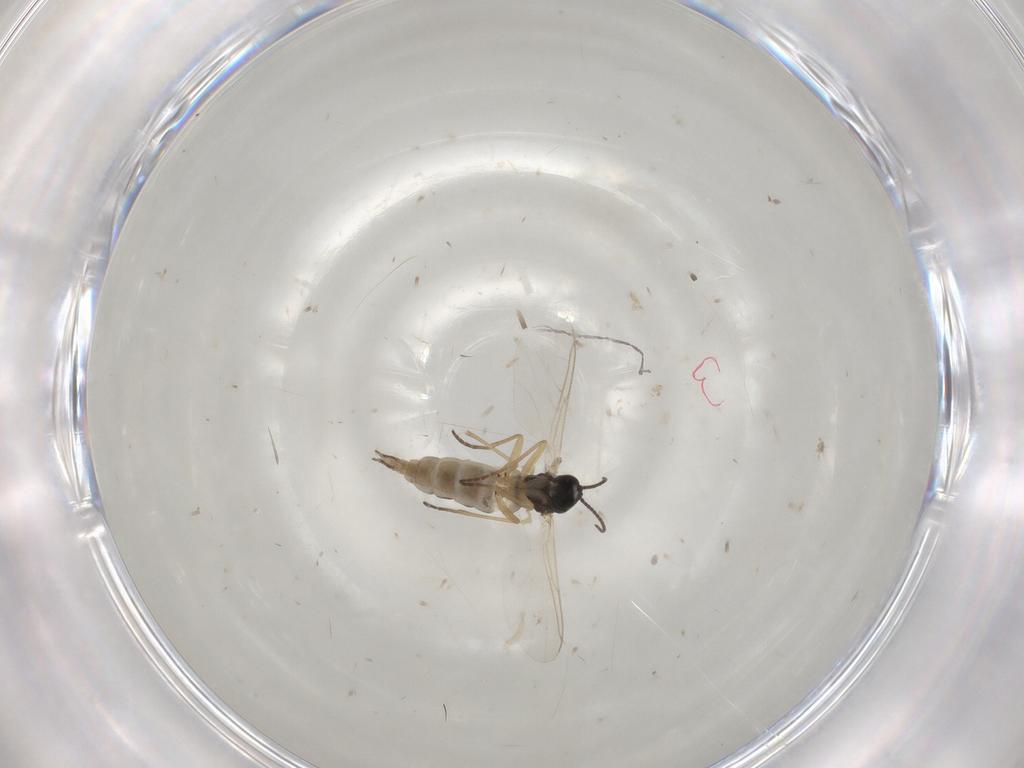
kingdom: Animalia
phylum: Arthropoda
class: Insecta
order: Diptera
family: Sciaridae
